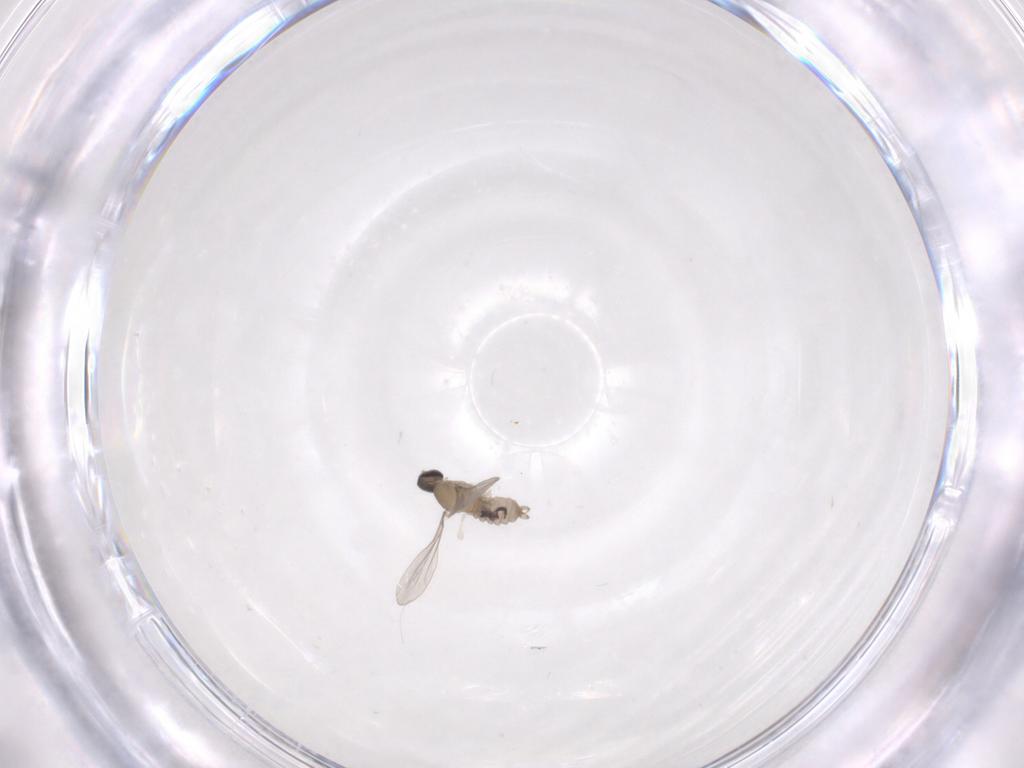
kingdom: Animalia
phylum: Arthropoda
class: Insecta
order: Diptera
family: Cecidomyiidae
